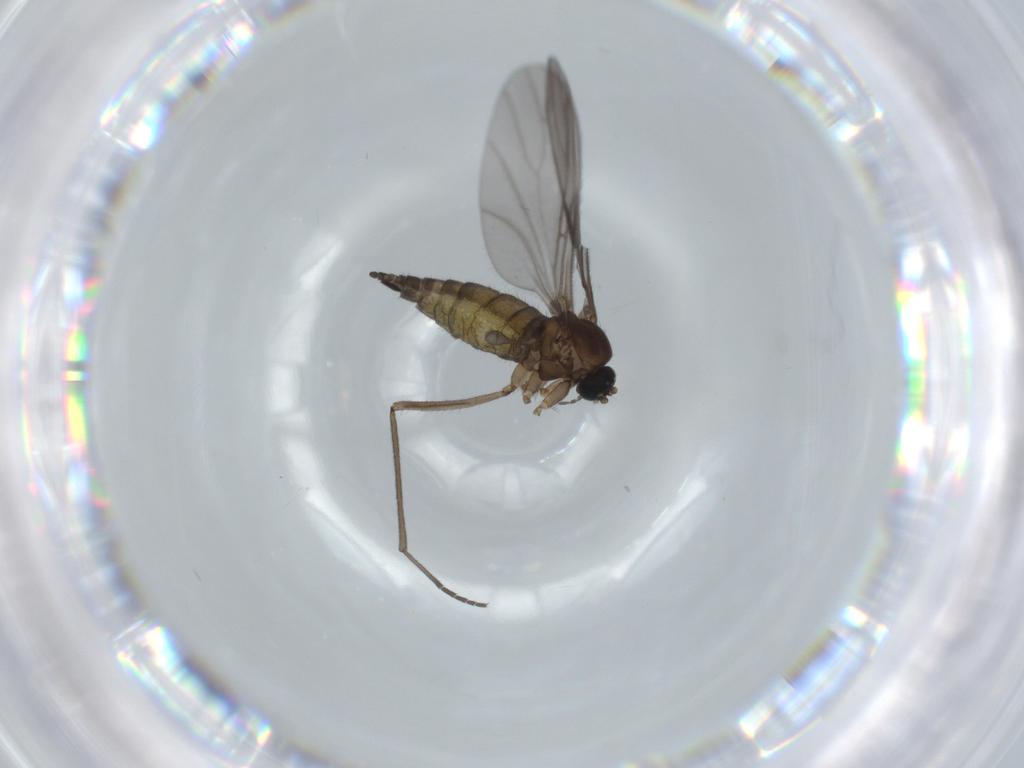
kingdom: Animalia
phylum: Arthropoda
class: Insecta
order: Diptera
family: Sciaridae
